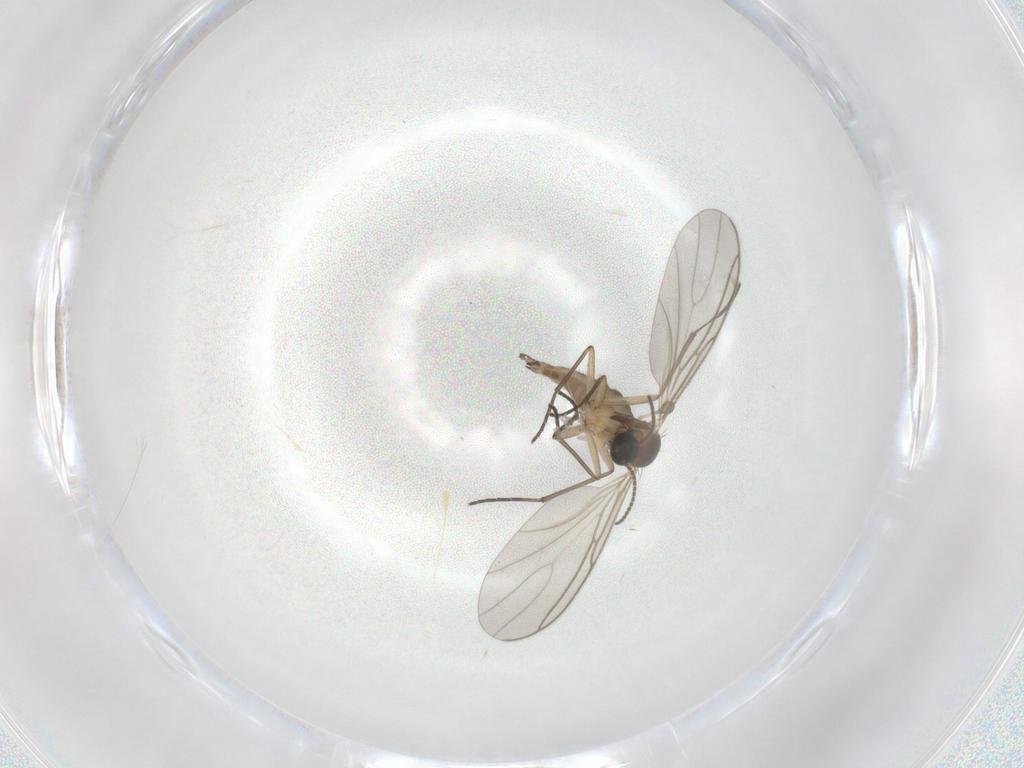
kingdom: Animalia
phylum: Arthropoda
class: Insecta
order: Diptera
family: Sciaridae
